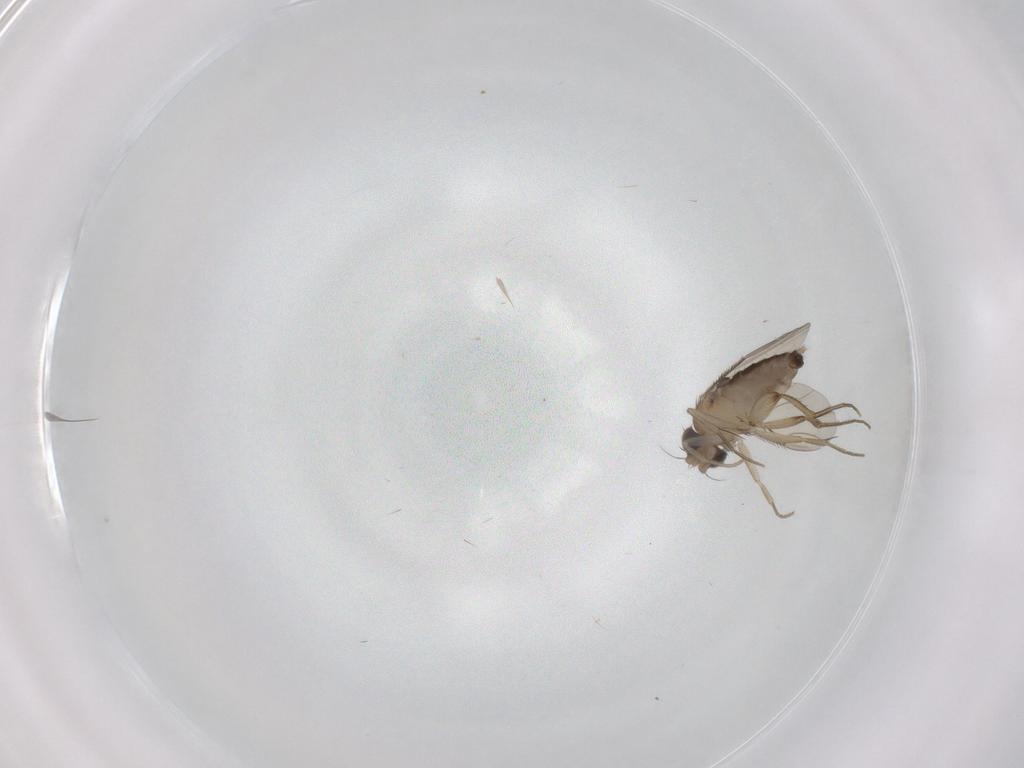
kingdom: Animalia
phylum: Arthropoda
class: Insecta
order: Diptera
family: Phoridae
